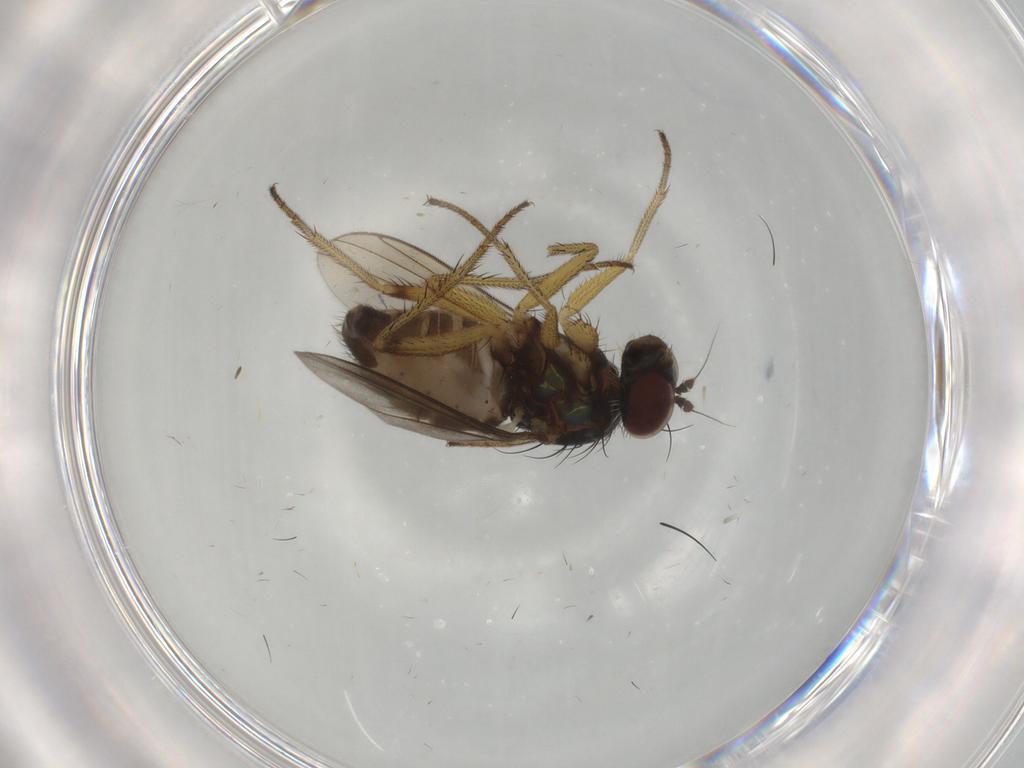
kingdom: Animalia
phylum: Arthropoda
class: Insecta
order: Diptera
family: Dolichopodidae
